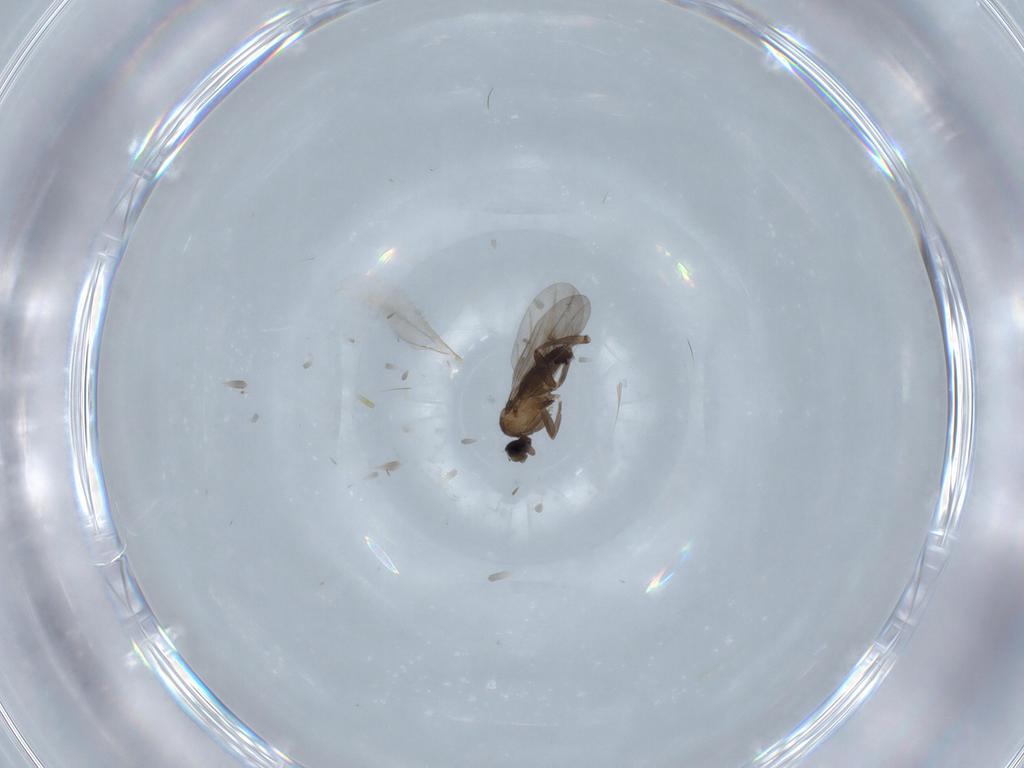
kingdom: Animalia
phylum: Arthropoda
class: Insecta
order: Diptera
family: Phoridae
